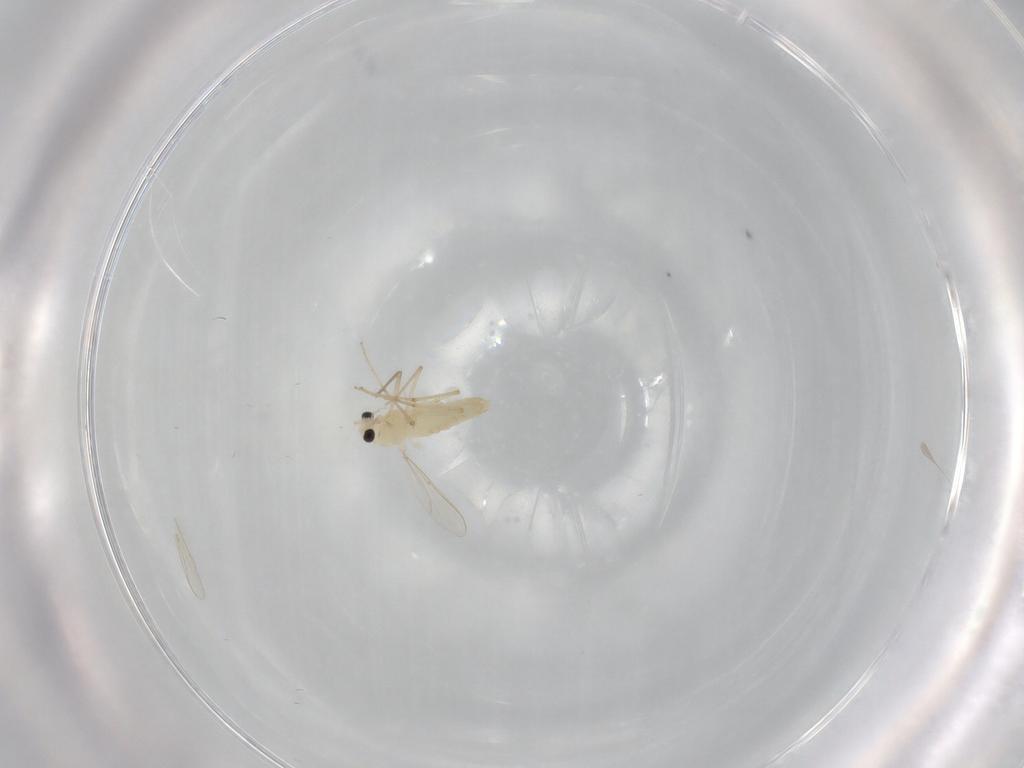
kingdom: Animalia
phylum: Arthropoda
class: Insecta
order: Diptera
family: Chironomidae
